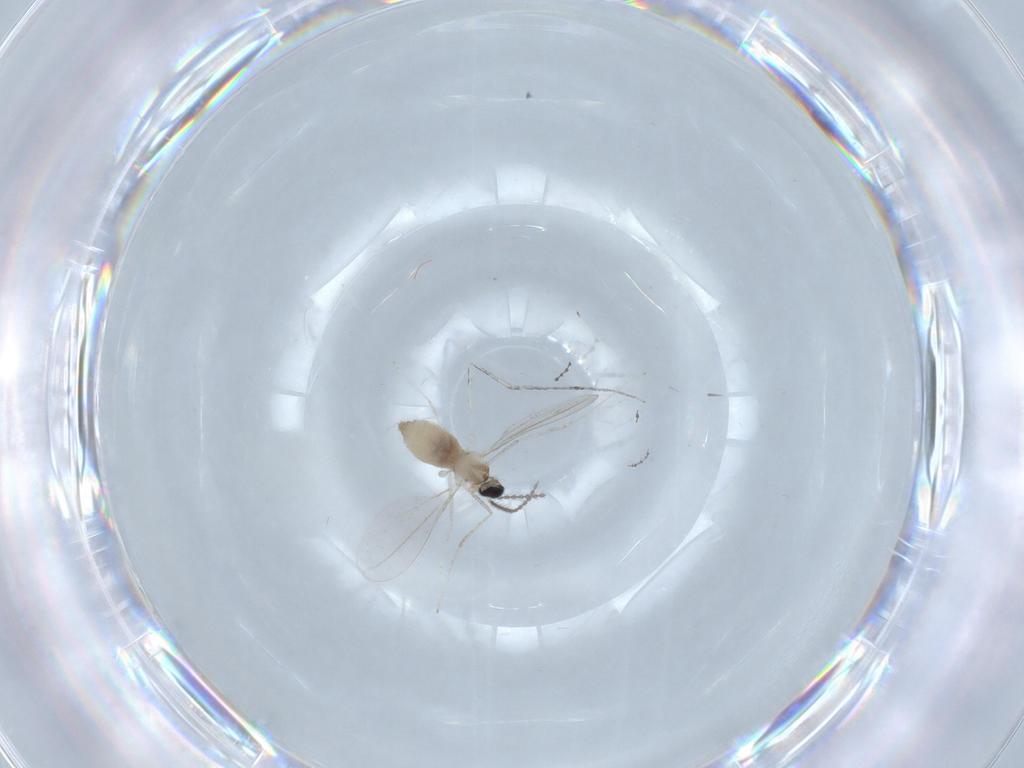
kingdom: Animalia
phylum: Arthropoda
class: Insecta
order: Diptera
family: Cecidomyiidae
